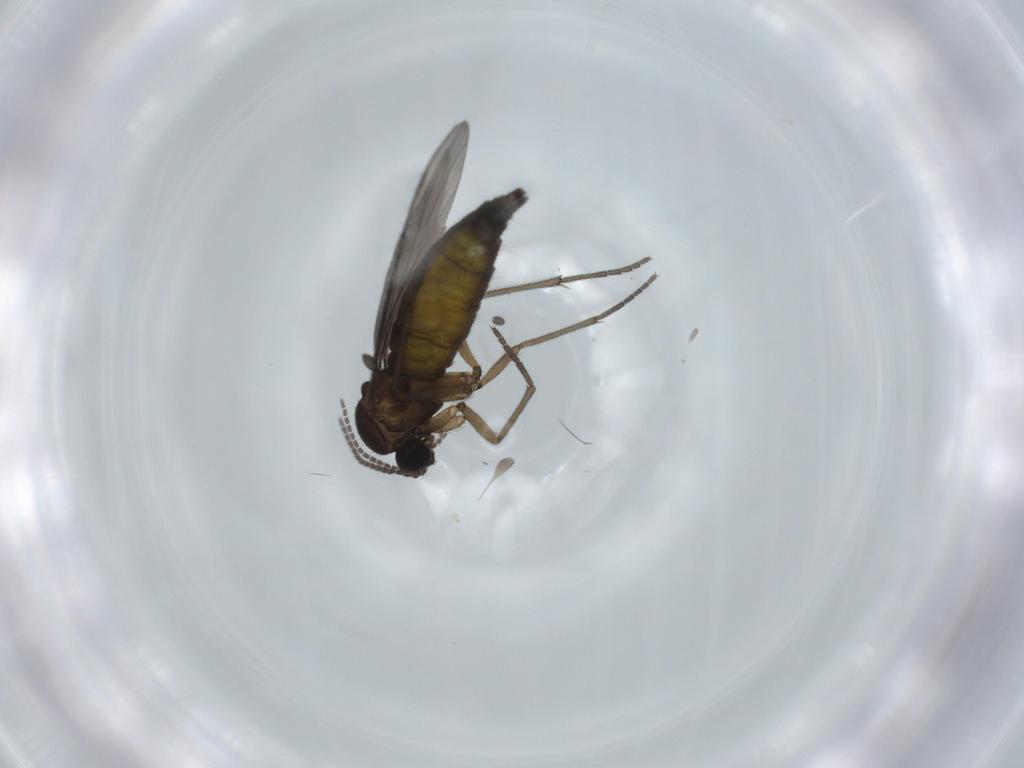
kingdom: Animalia
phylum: Arthropoda
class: Insecta
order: Diptera
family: Sciaridae
